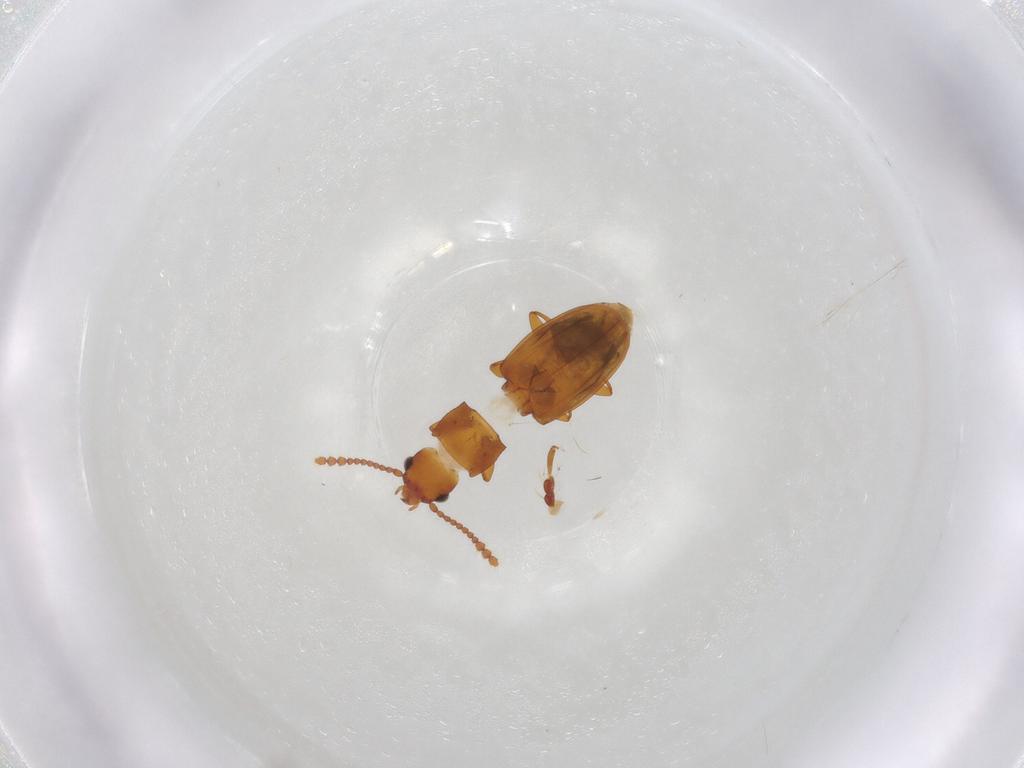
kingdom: Animalia
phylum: Arthropoda
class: Insecta
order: Coleoptera
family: Laemophloeidae
